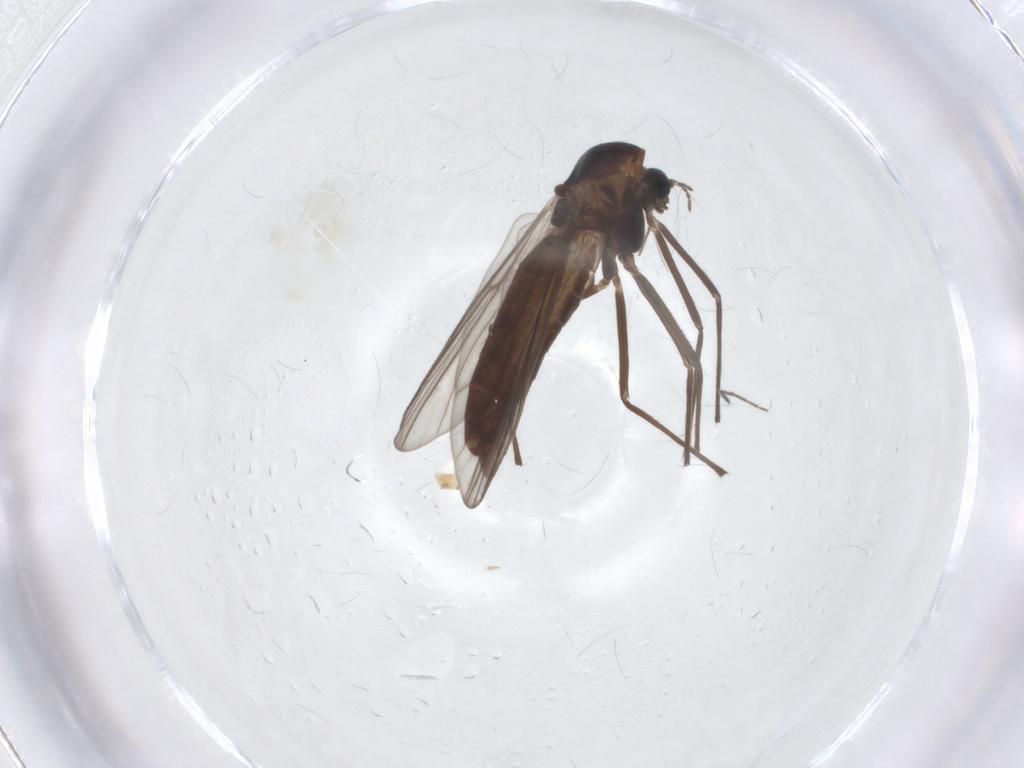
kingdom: Animalia
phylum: Arthropoda
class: Insecta
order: Diptera
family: Chironomidae
